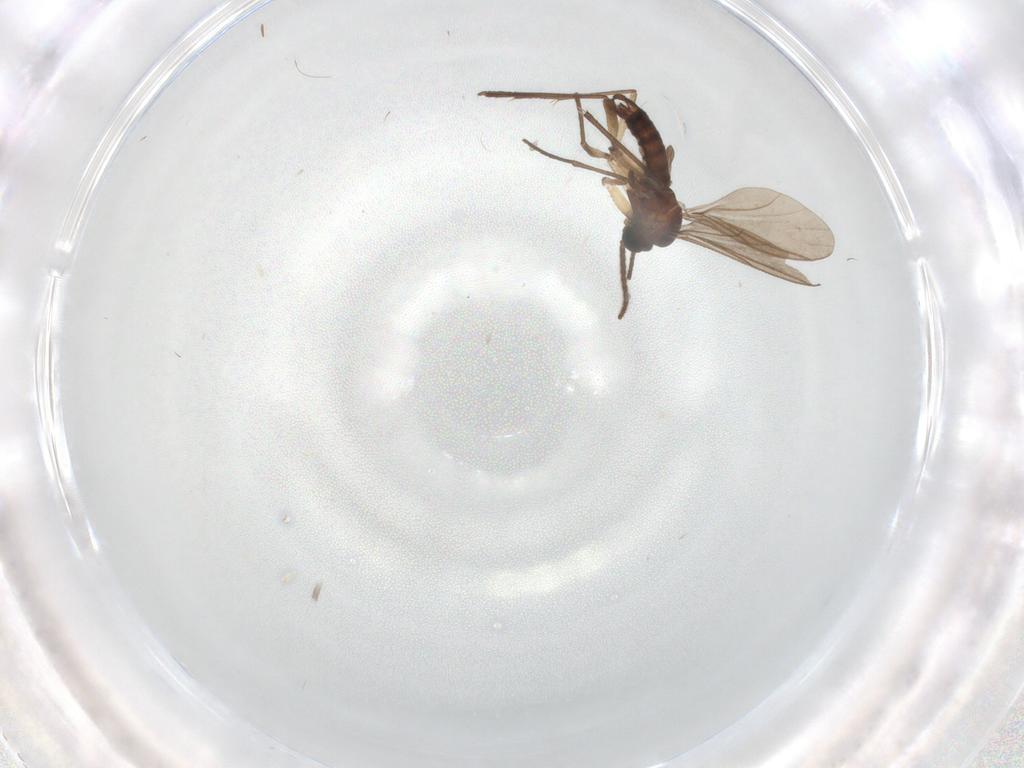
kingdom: Animalia
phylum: Arthropoda
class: Insecta
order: Diptera
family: Sciaridae
